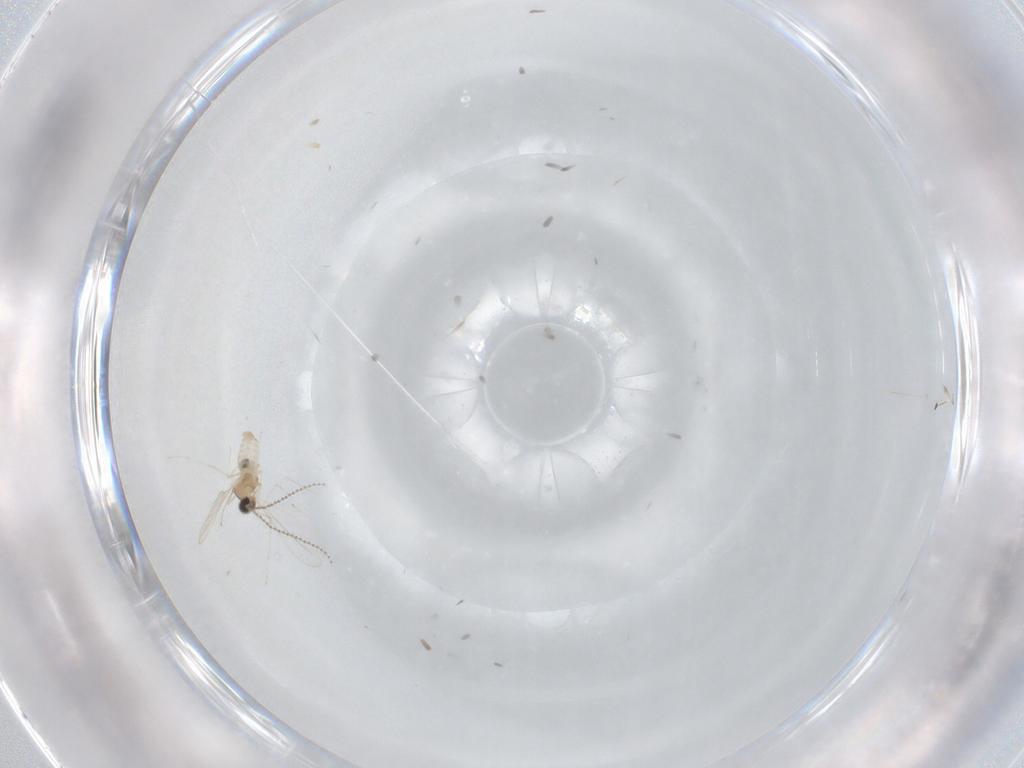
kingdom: Animalia
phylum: Arthropoda
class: Insecta
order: Diptera
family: Cecidomyiidae
